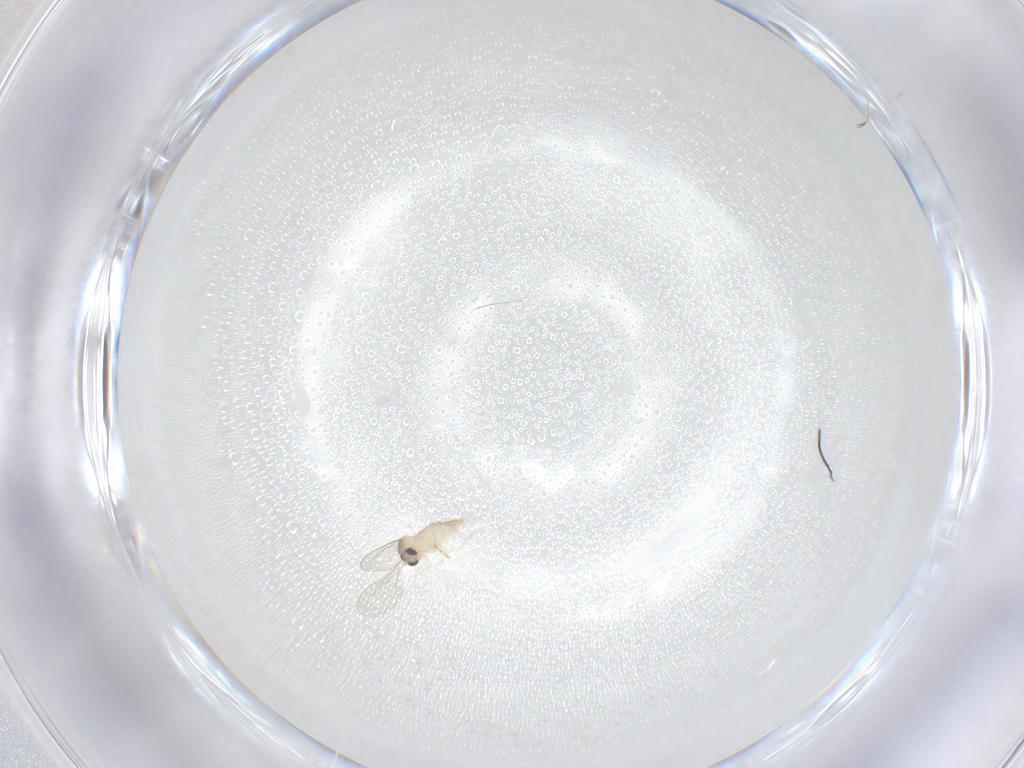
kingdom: Animalia
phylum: Arthropoda
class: Insecta
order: Diptera
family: Cecidomyiidae
